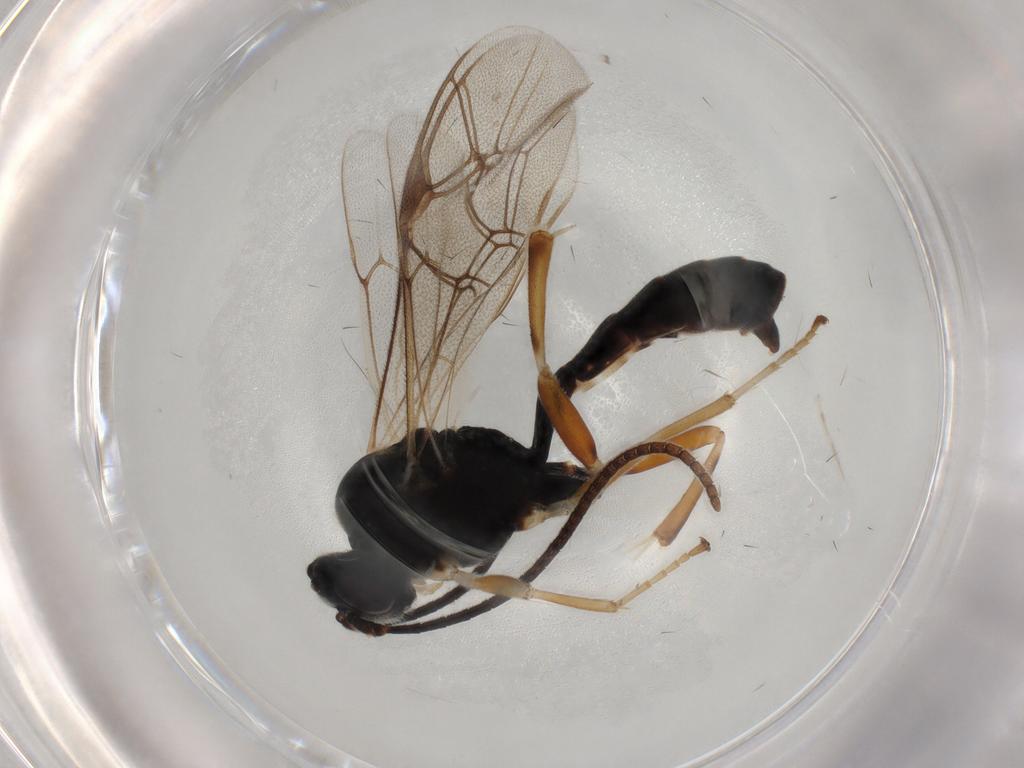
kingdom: Animalia
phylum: Arthropoda
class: Insecta
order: Hymenoptera
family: Ichneumonidae
